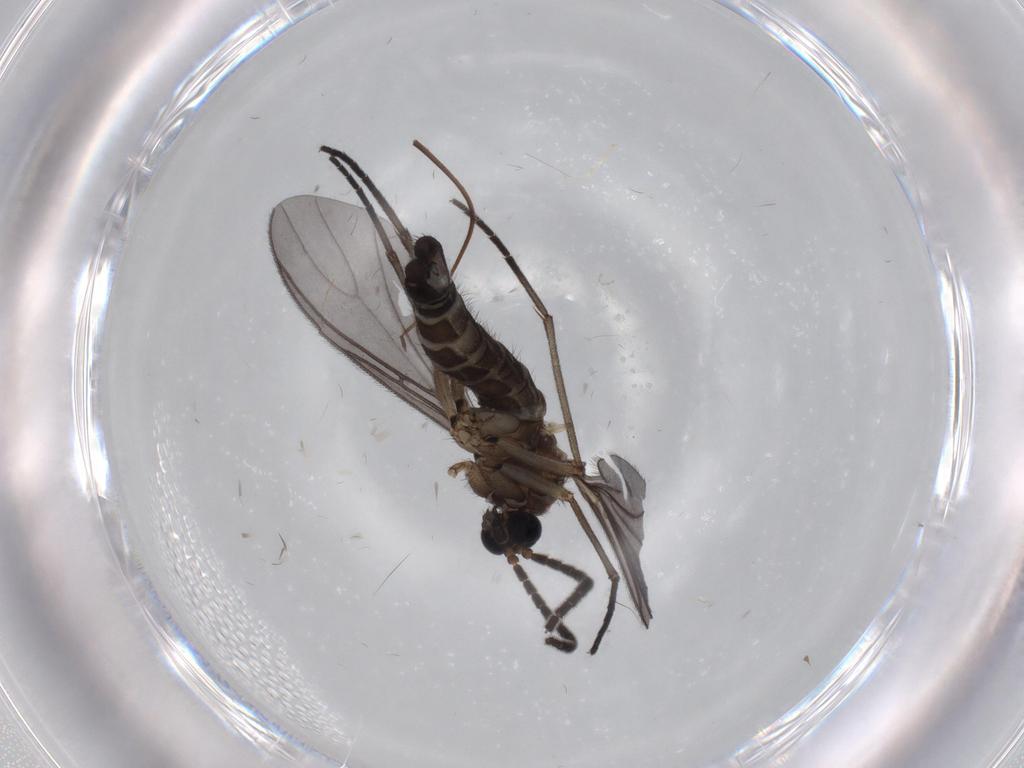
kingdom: Animalia
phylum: Arthropoda
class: Insecta
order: Diptera
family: Sciaridae
